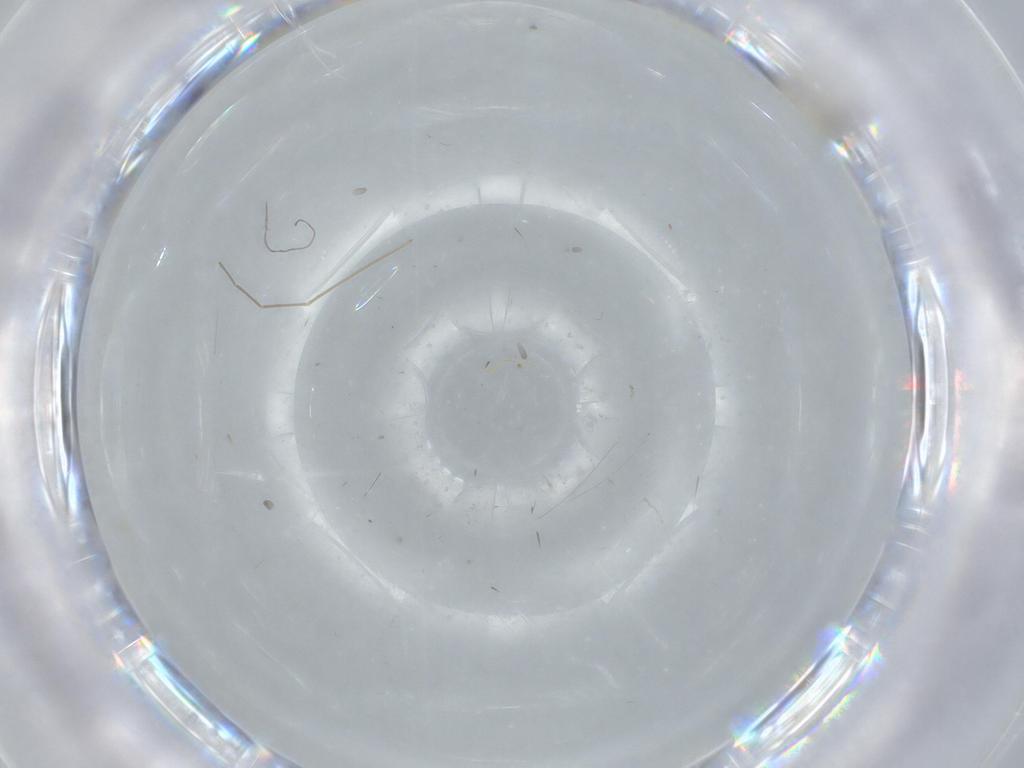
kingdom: Animalia
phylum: Arthropoda
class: Insecta
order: Diptera
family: Chironomidae
